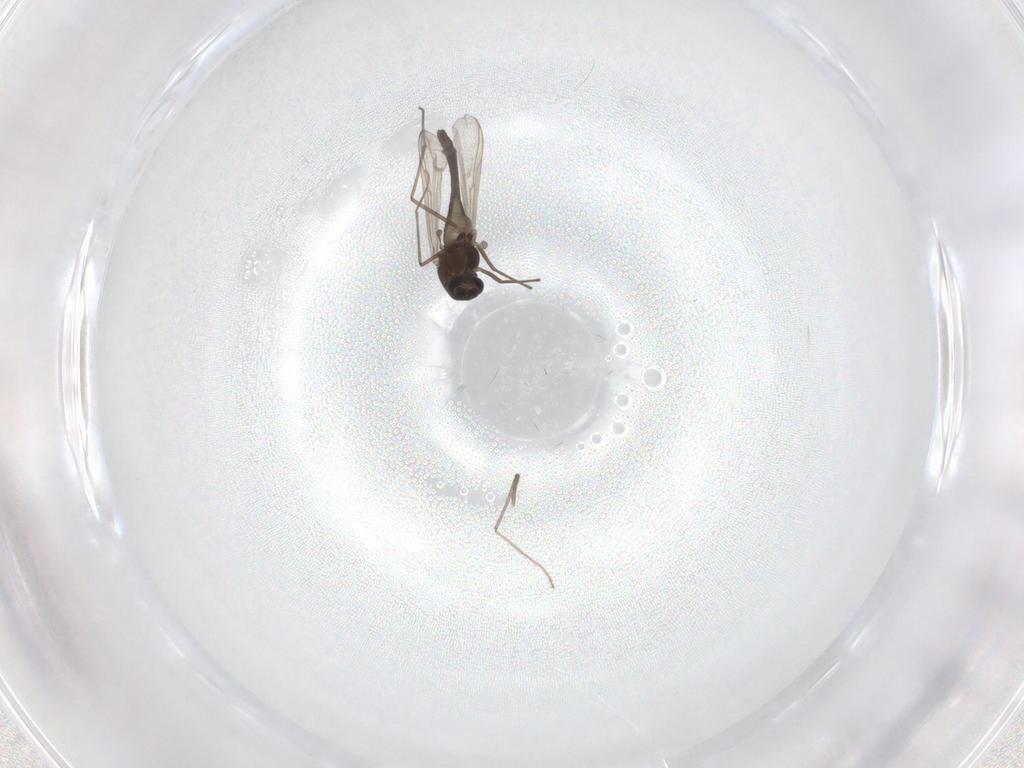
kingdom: Animalia
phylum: Arthropoda
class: Insecta
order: Diptera
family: Chironomidae
